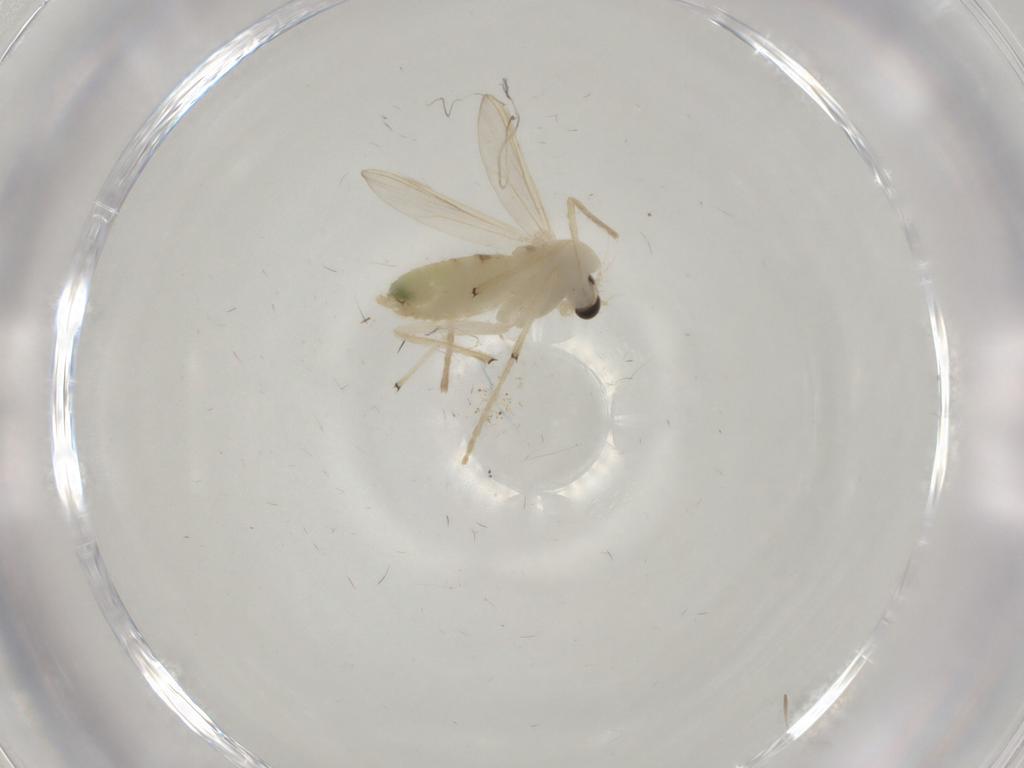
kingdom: Animalia
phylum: Arthropoda
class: Insecta
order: Diptera
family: Chironomidae
